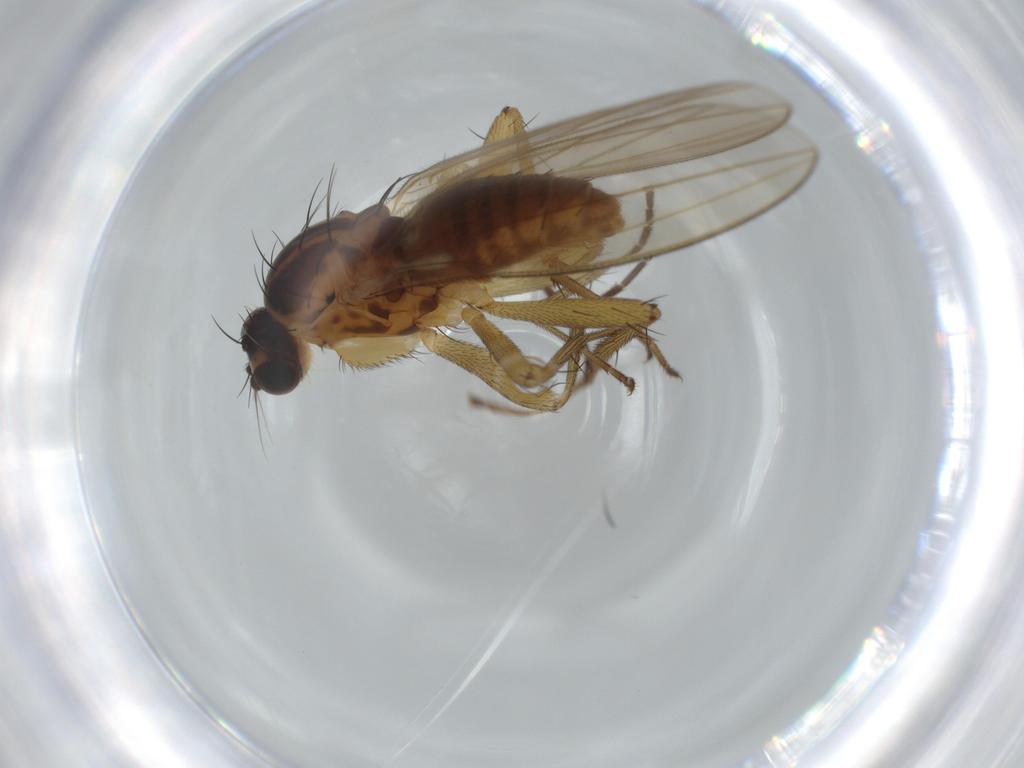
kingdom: Animalia
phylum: Arthropoda
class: Insecta
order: Diptera
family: Lonchopteridae
